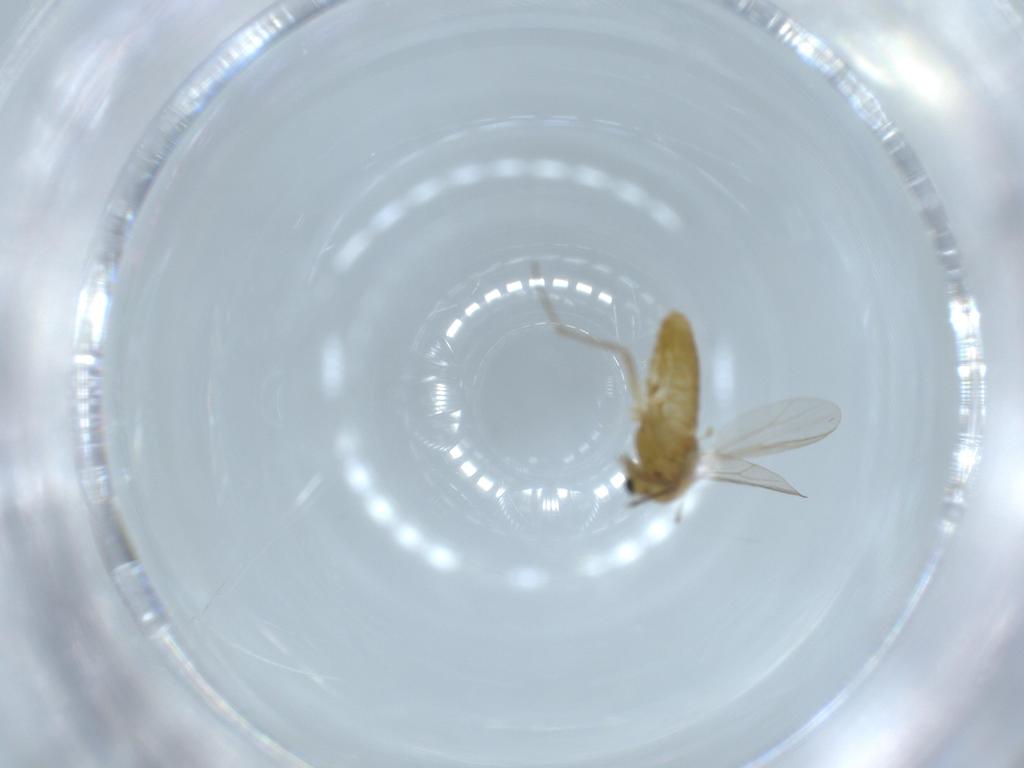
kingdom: Animalia
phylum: Arthropoda
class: Insecta
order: Diptera
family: Chironomidae
